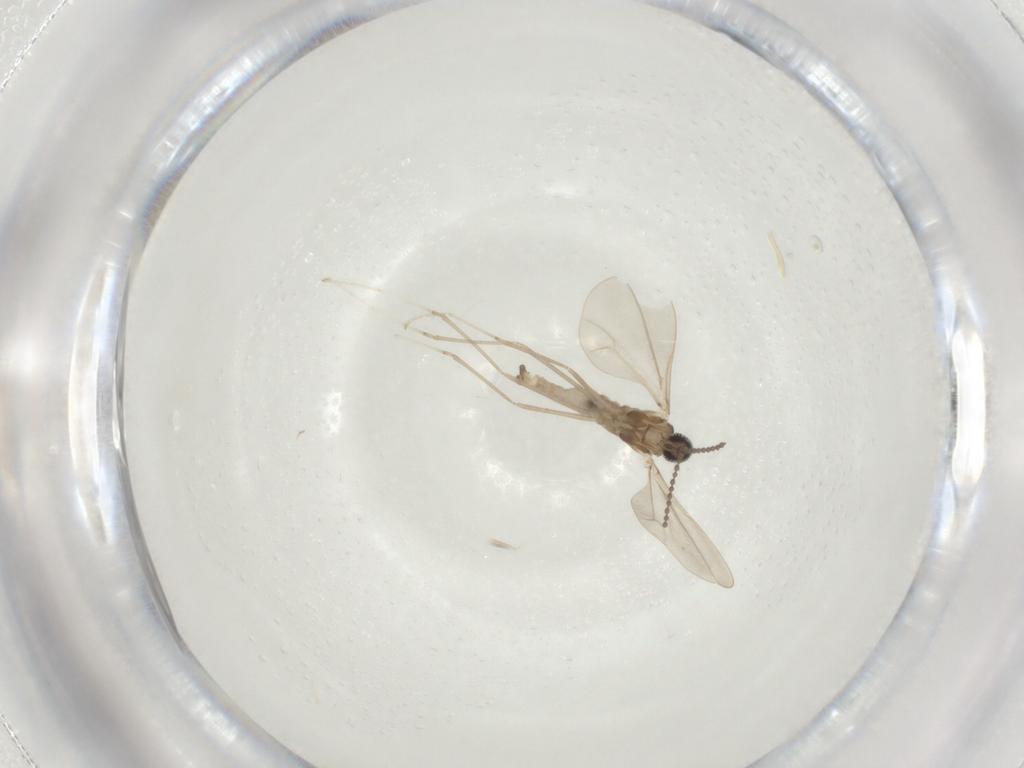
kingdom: Animalia
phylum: Arthropoda
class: Insecta
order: Diptera
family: Cecidomyiidae
